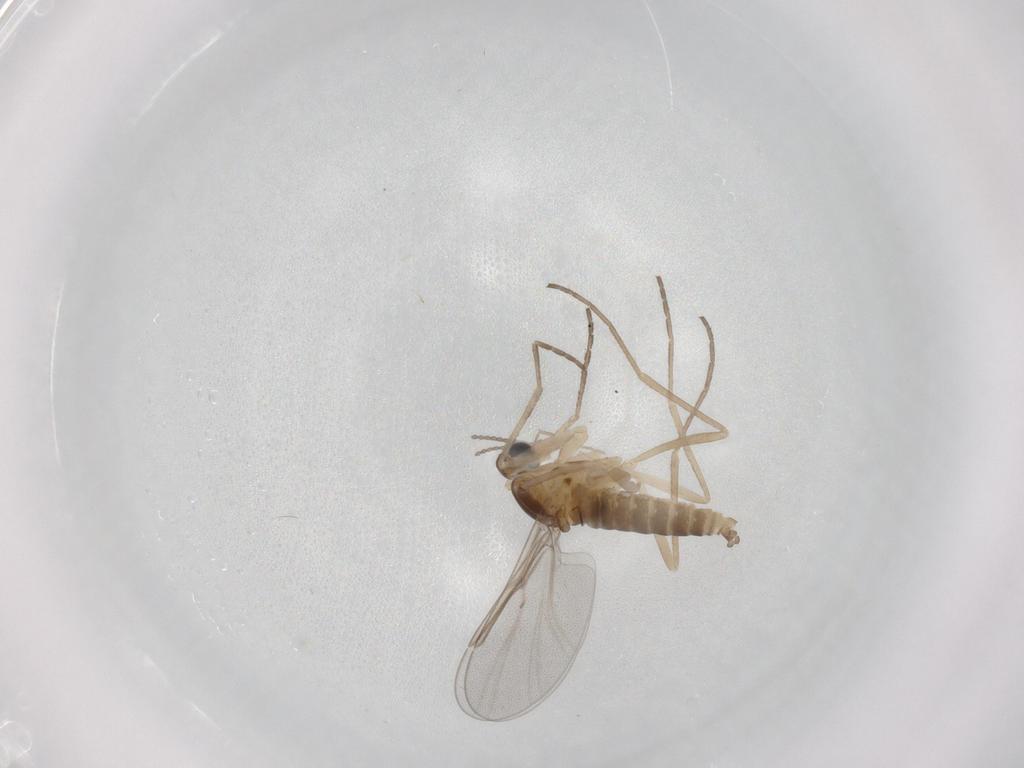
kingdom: Animalia
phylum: Arthropoda
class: Insecta
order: Diptera
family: Cecidomyiidae
